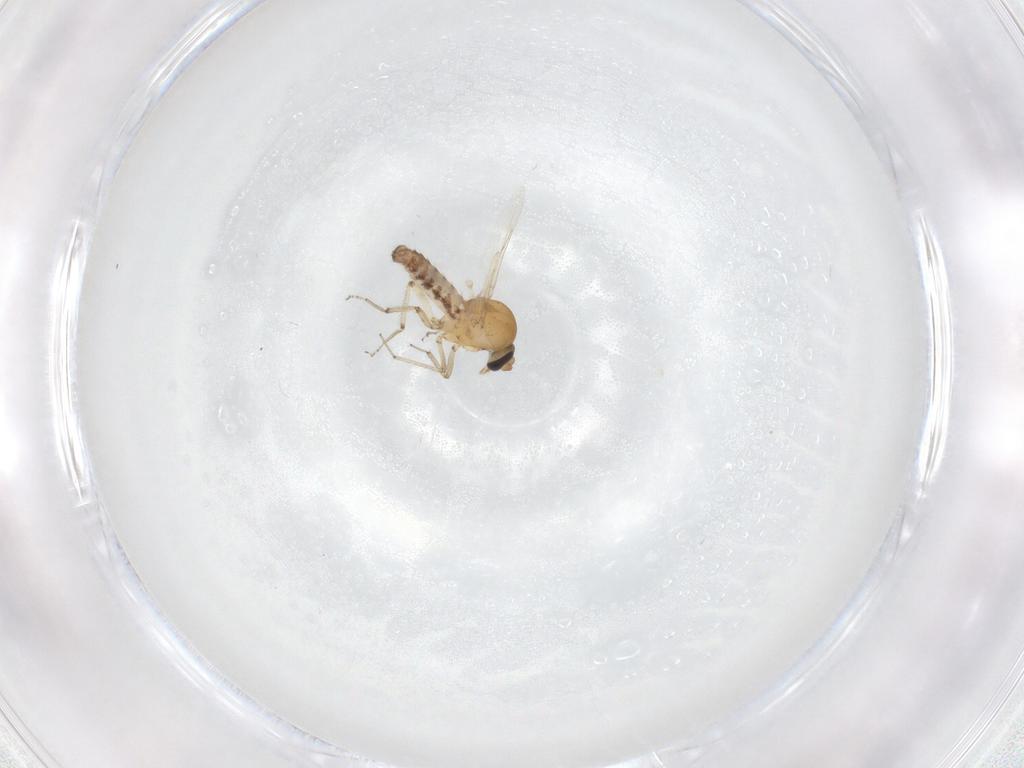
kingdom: Animalia
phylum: Arthropoda
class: Insecta
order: Diptera
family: Ceratopogonidae
